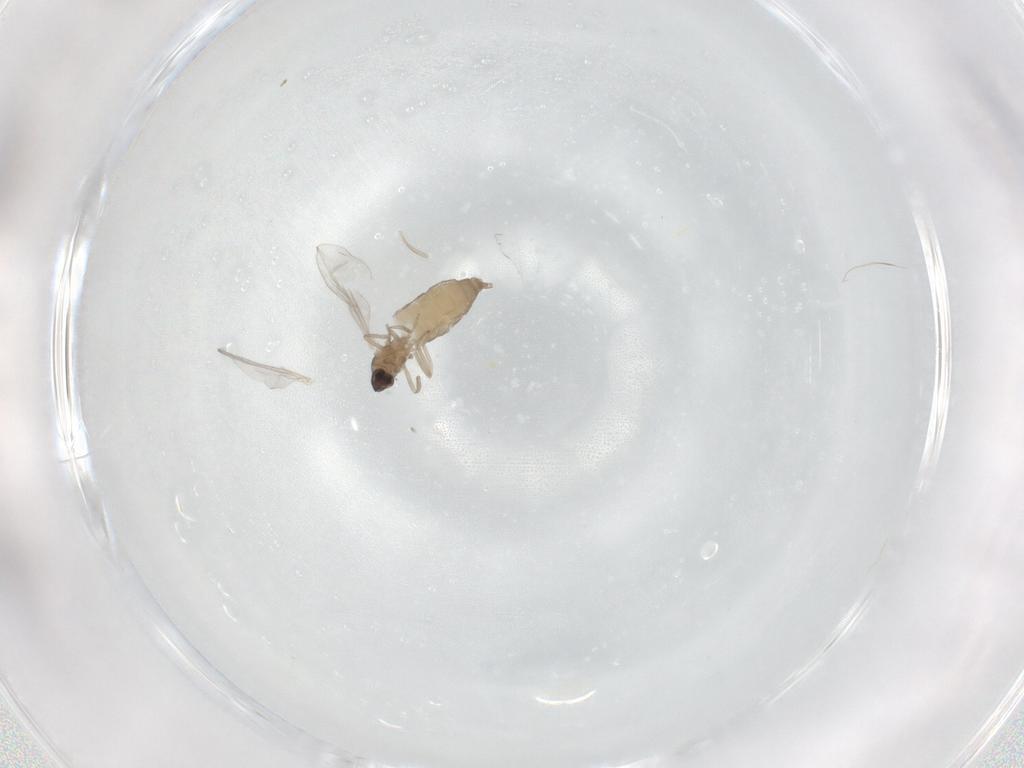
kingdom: Animalia
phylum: Arthropoda
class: Insecta
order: Diptera
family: Cecidomyiidae
